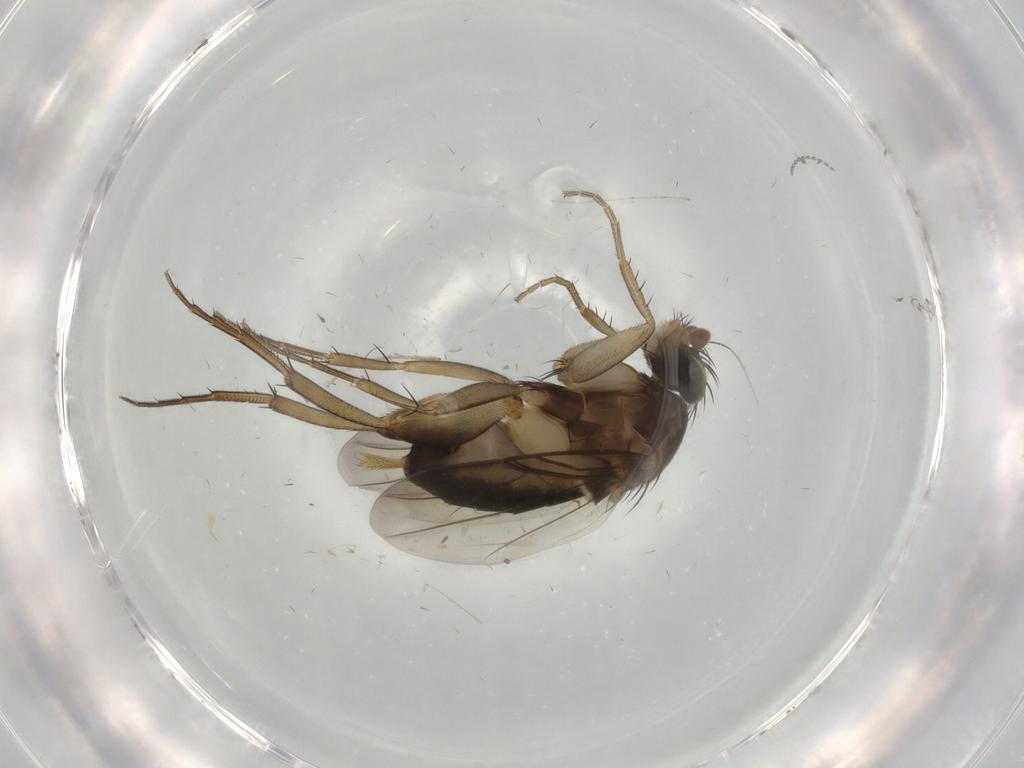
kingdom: Animalia
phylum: Arthropoda
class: Insecta
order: Diptera
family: Phoridae
